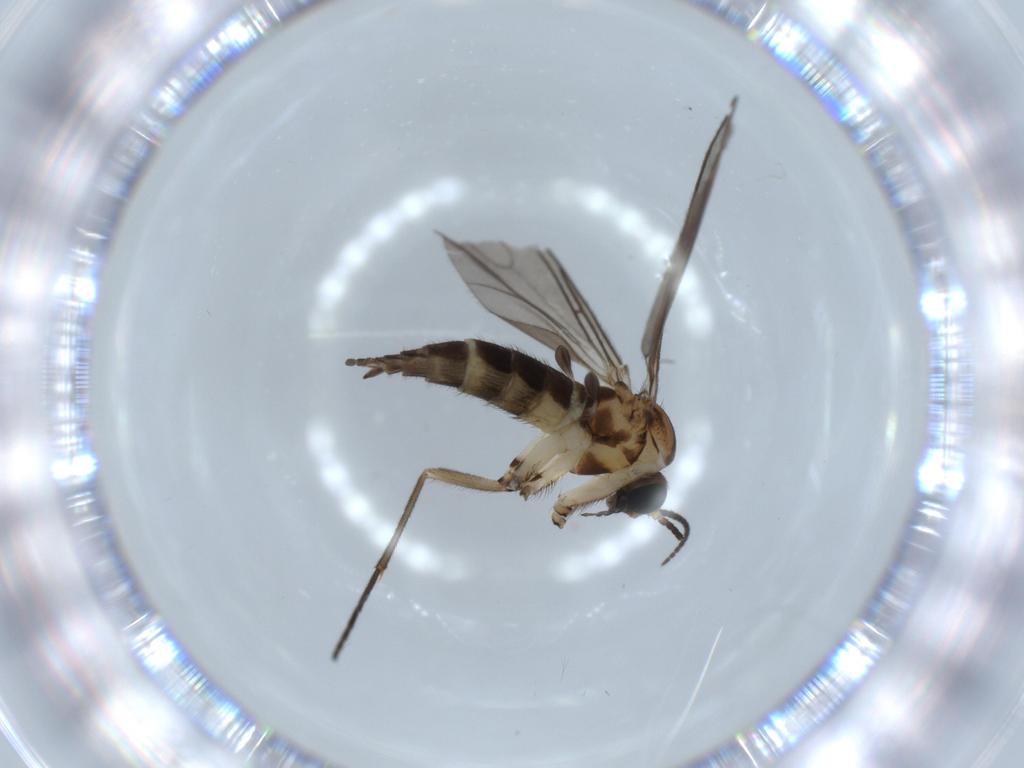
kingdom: Animalia
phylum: Arthropoda
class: Insecta
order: Diptera
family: Sciaridae
